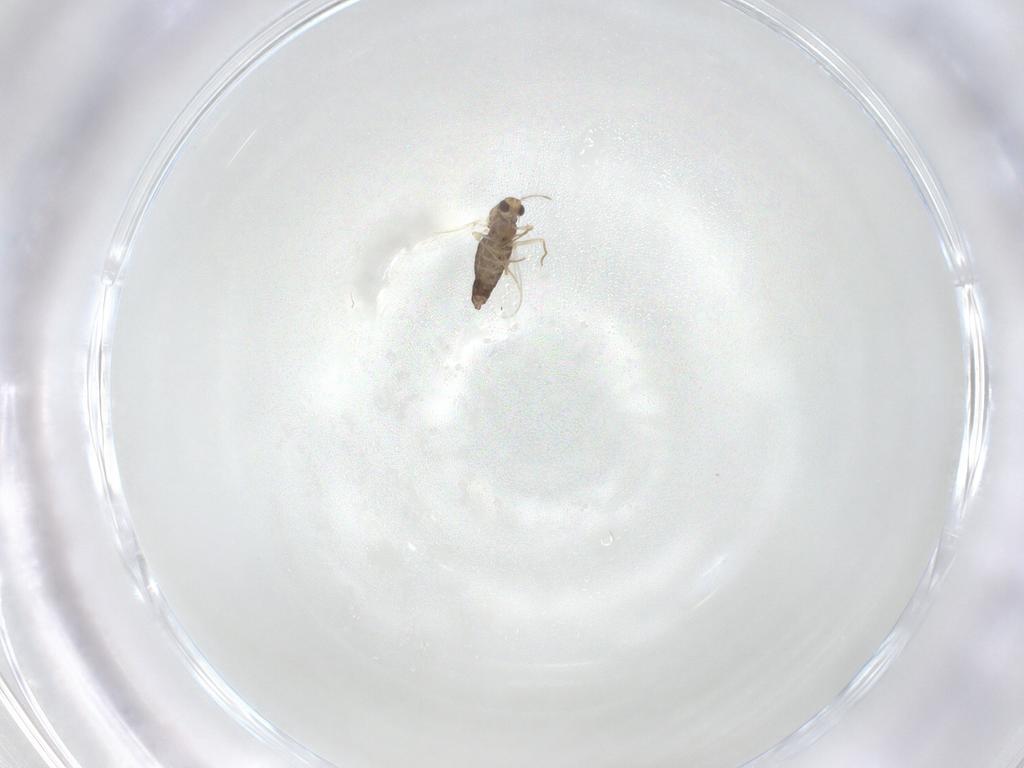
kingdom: Animalia
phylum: Arthropoda
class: Insecta
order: Diptera
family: Chironomidae
